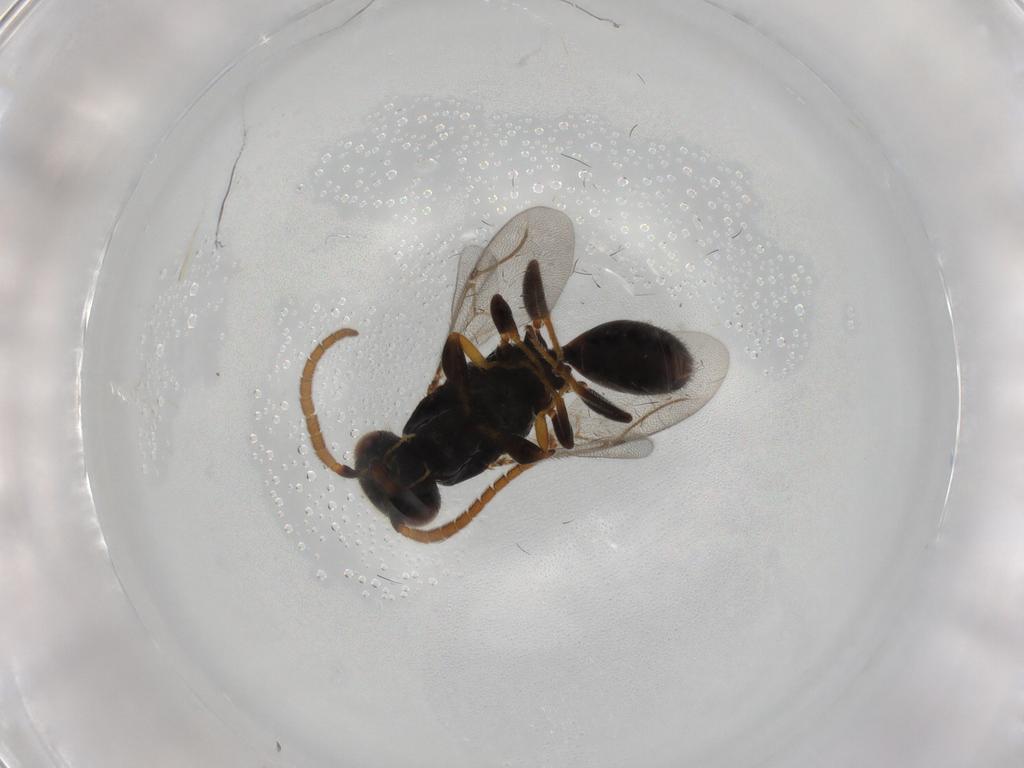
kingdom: Animalia
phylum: Arthropoda
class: Insecta
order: Hymenoptera
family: Bethylidae
